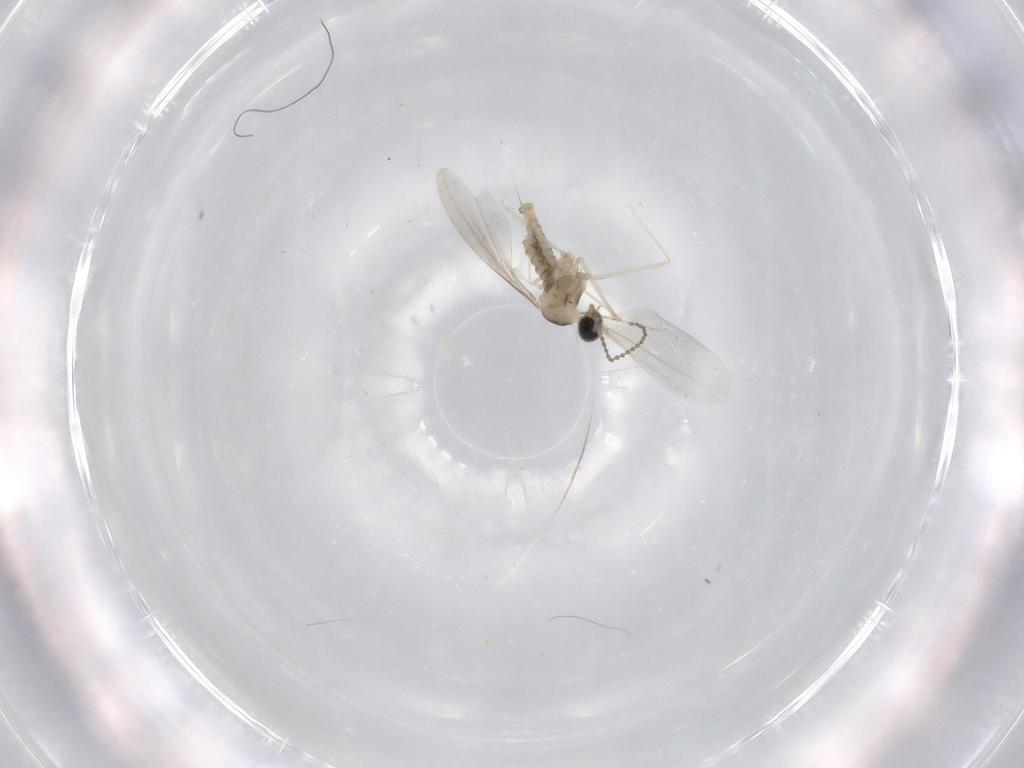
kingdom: Animalia
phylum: Arthropoda
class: Insecta
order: Diptera
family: Cecidomyiidae
